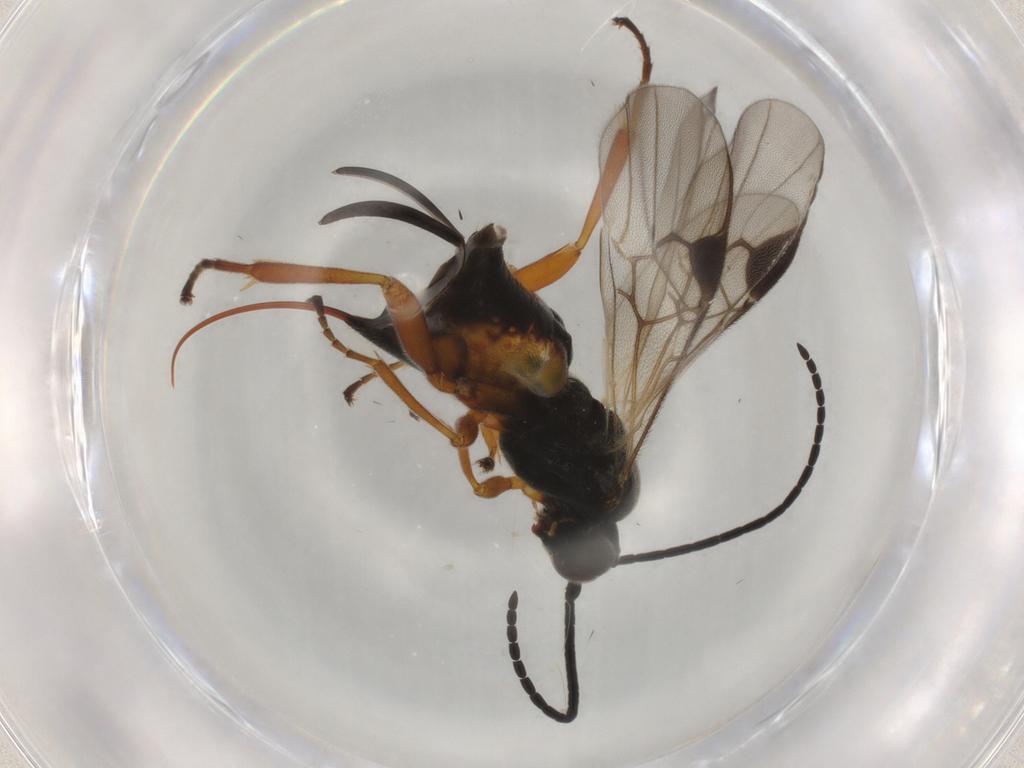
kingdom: Animalia
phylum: Arthropoda
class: Insecta
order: Lepidoptera
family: Tortricidae
